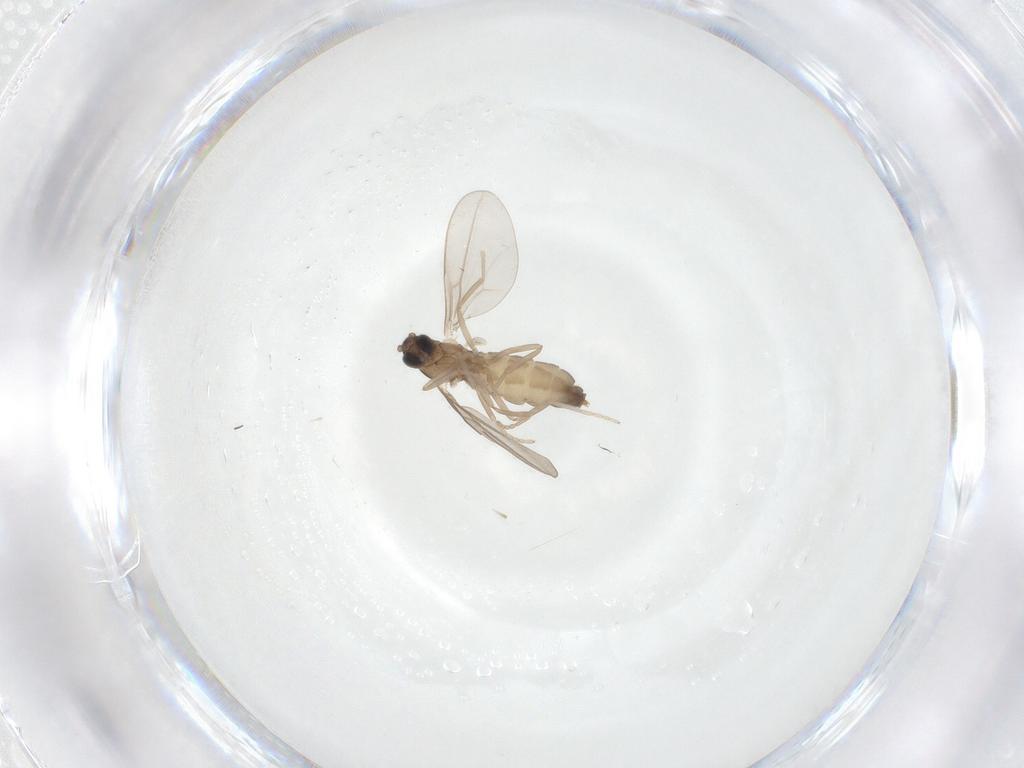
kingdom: Animalia
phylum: Arthropoda
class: Insecta
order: Diptera
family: Cecidomyiidae
